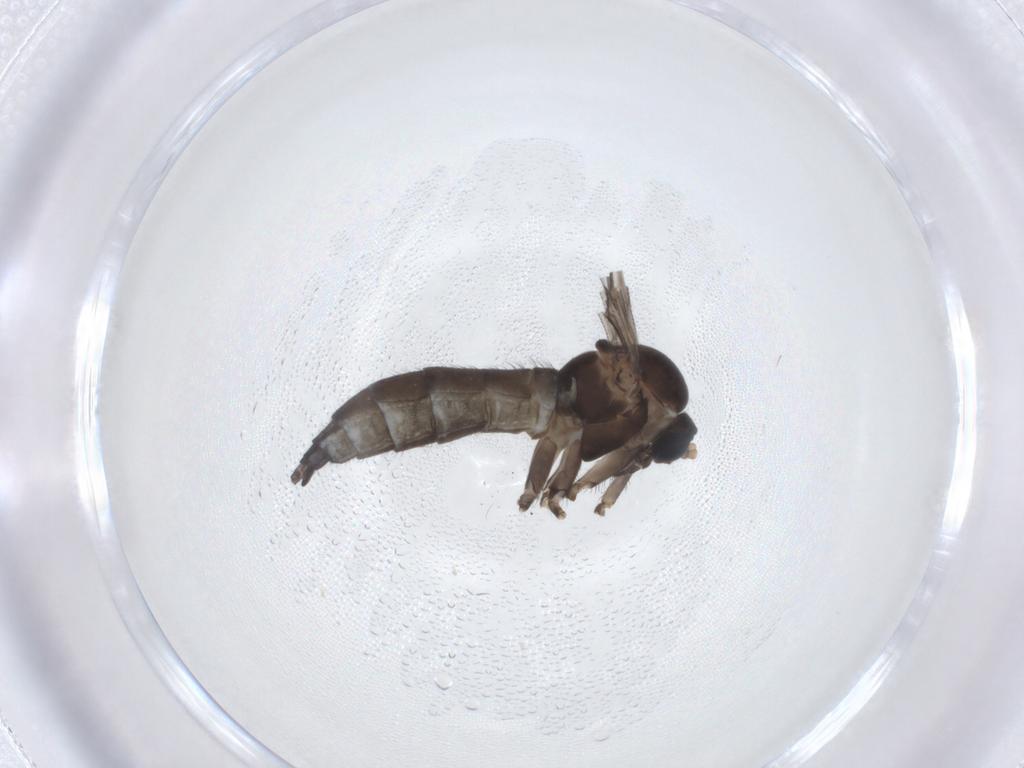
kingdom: Animalia
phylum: Arthropoda
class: Insecta
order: Diptera
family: Sciaridae
